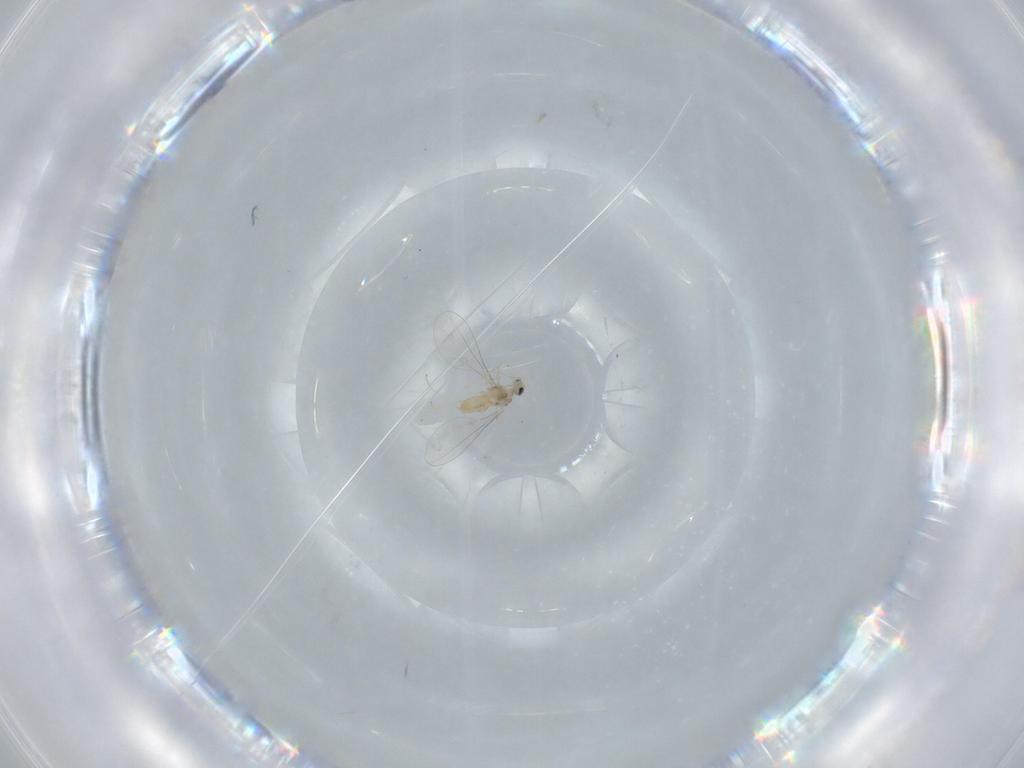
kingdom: Animalia
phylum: Arthropoda
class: Insecta
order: Diptera
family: Cecidomyiidae
